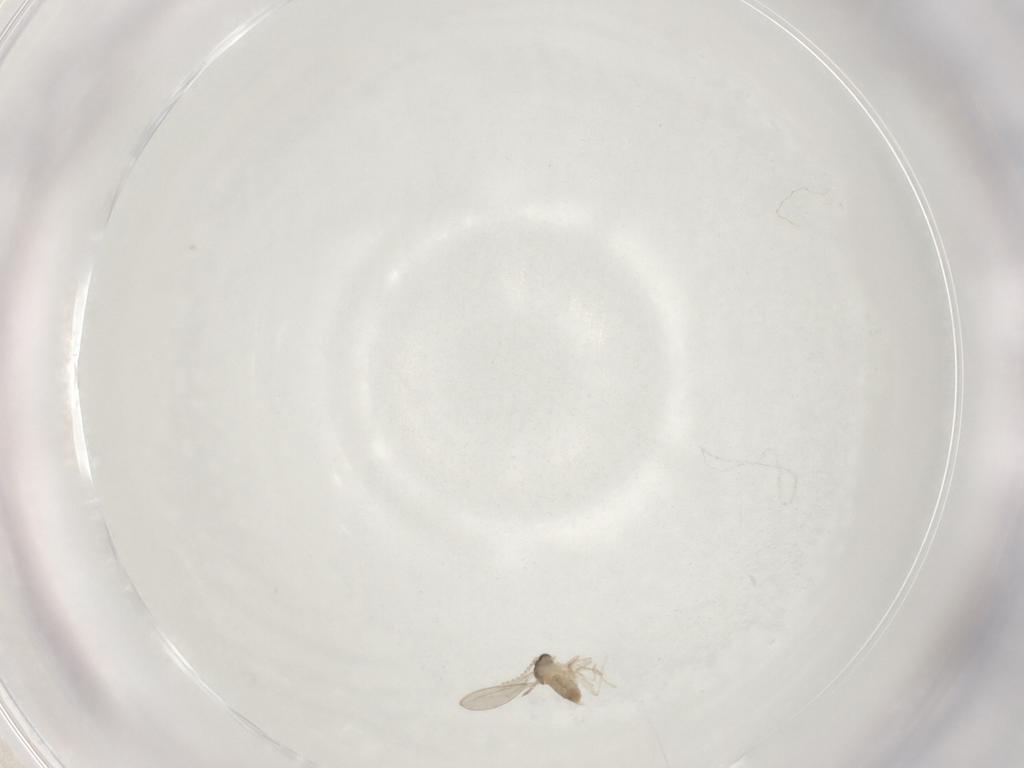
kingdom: Animalia
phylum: Arthropoda
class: Insecta
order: Diptera
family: Cecidomyiidae
